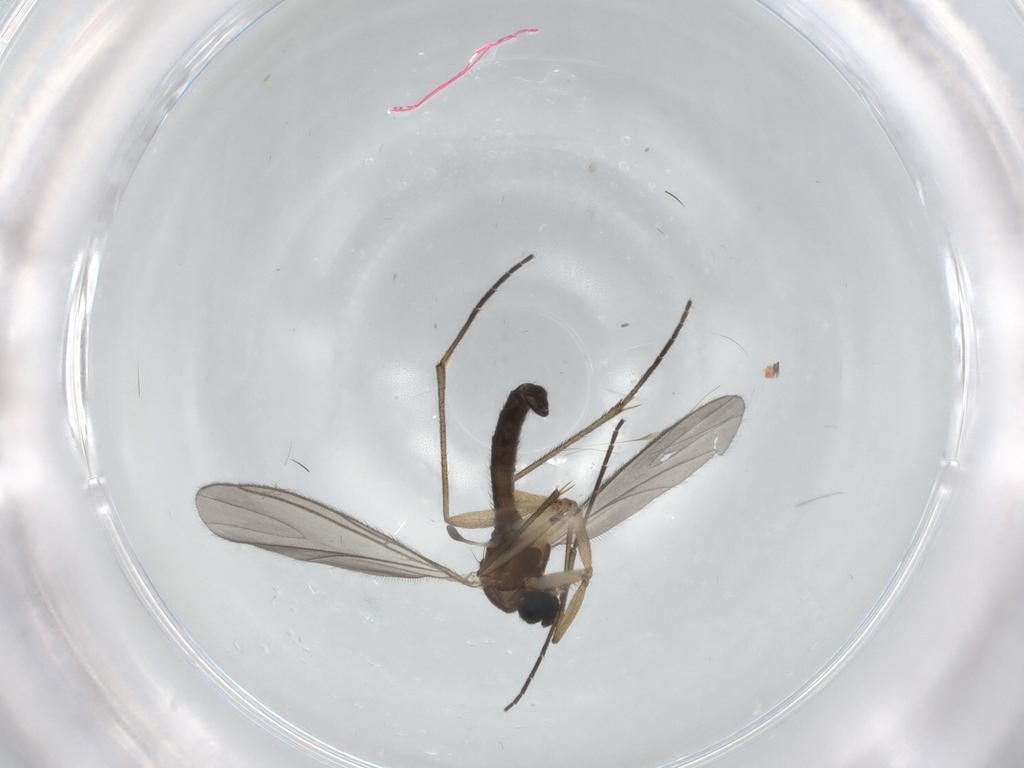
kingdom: Animalia
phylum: Arthropoda
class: Insecta
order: Diptera
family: Sciaridae
